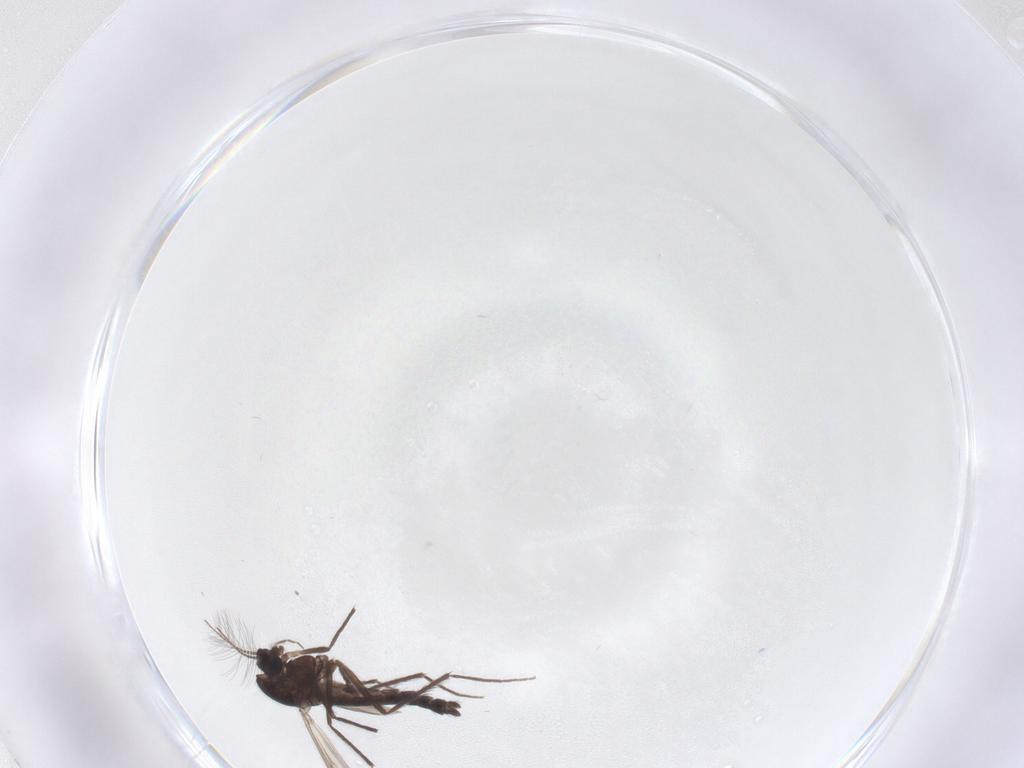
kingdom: Animalia
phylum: Arthropoda
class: Insecta
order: Diptera
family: Chironomidae
